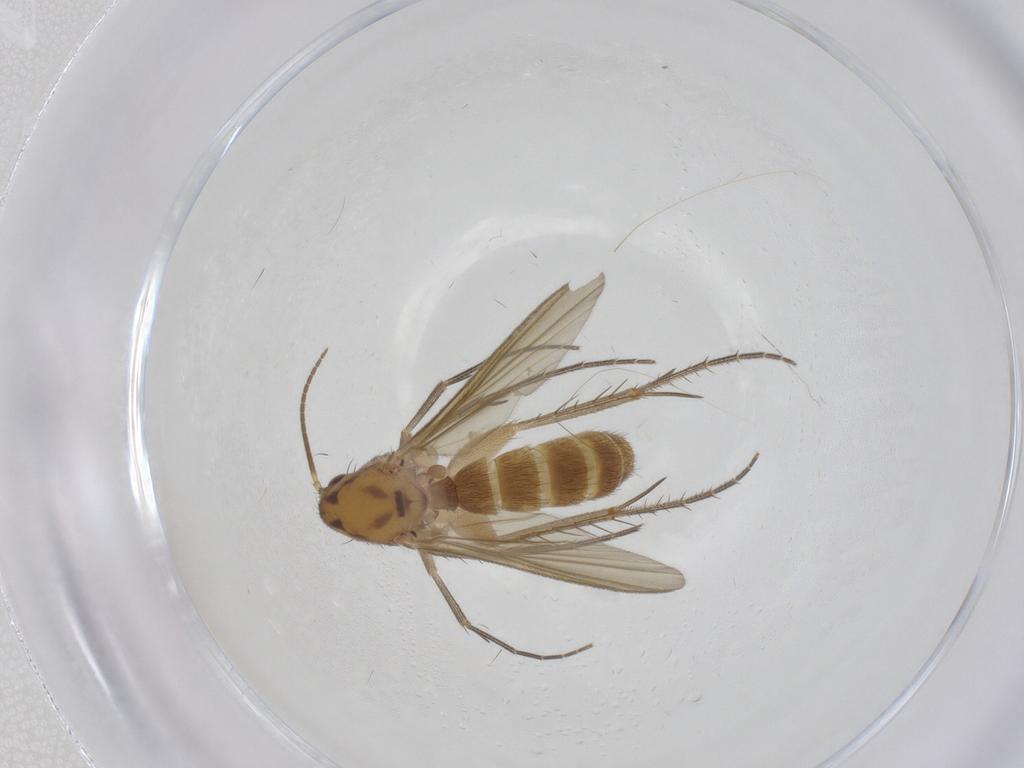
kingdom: Animalia
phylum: Arthropoda
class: Insecta
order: Diptera
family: Mycetophilidae
